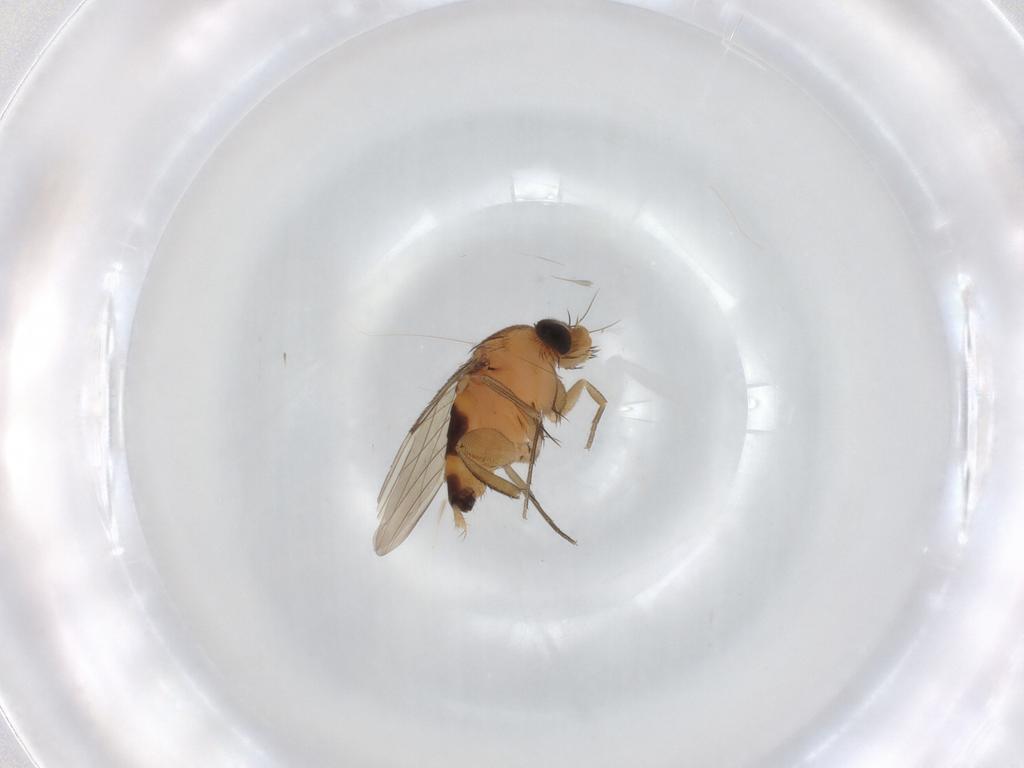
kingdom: Animalia
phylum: Arthropoda
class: Insecta
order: Diptera
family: Phoridae
